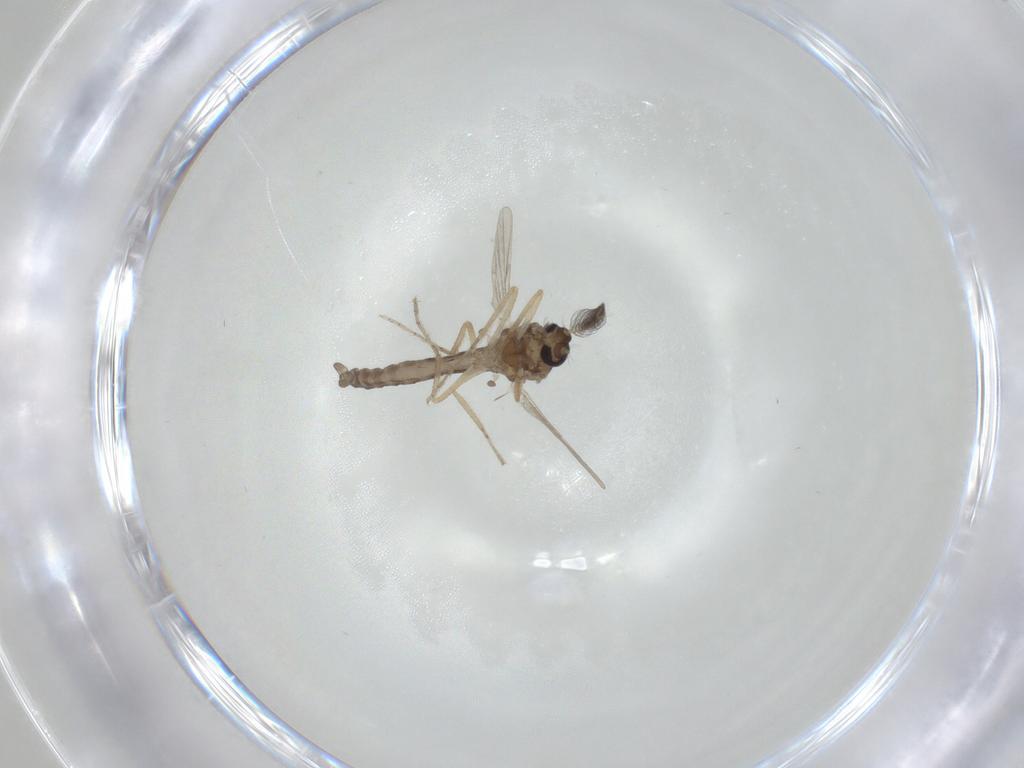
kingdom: Animalia
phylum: Arthropoda
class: Insecta
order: Diptera
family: Ceratopogonidae
